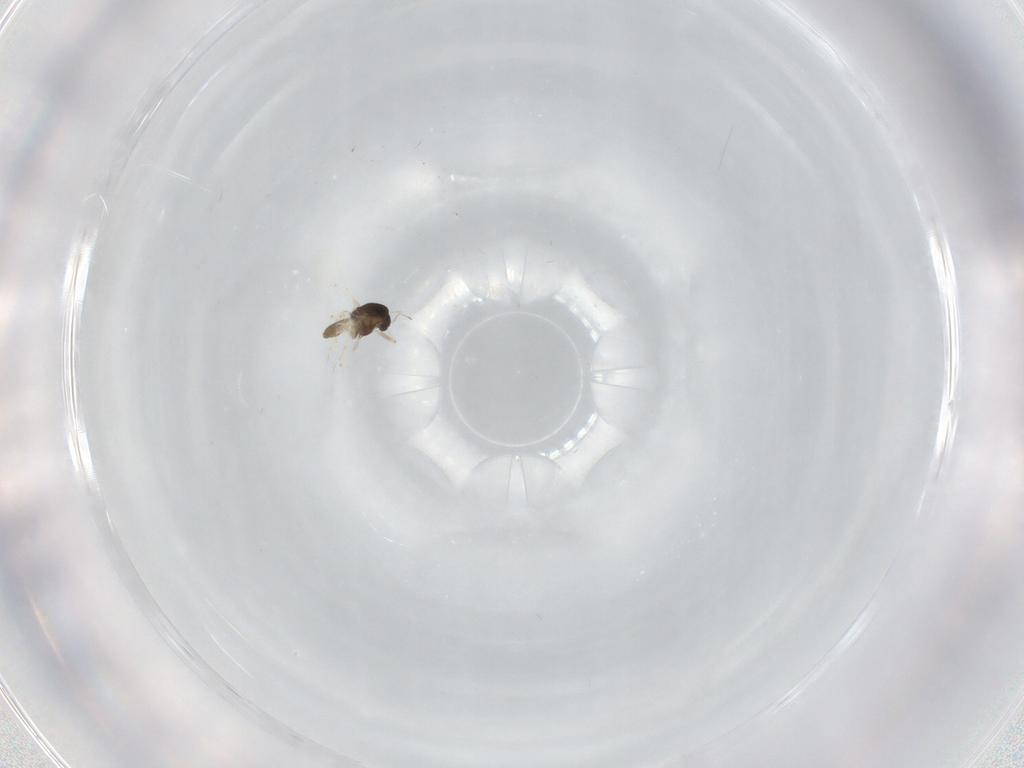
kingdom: Animalia
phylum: Arthropoda
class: Insecta
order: Diptera
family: Chironomidae
